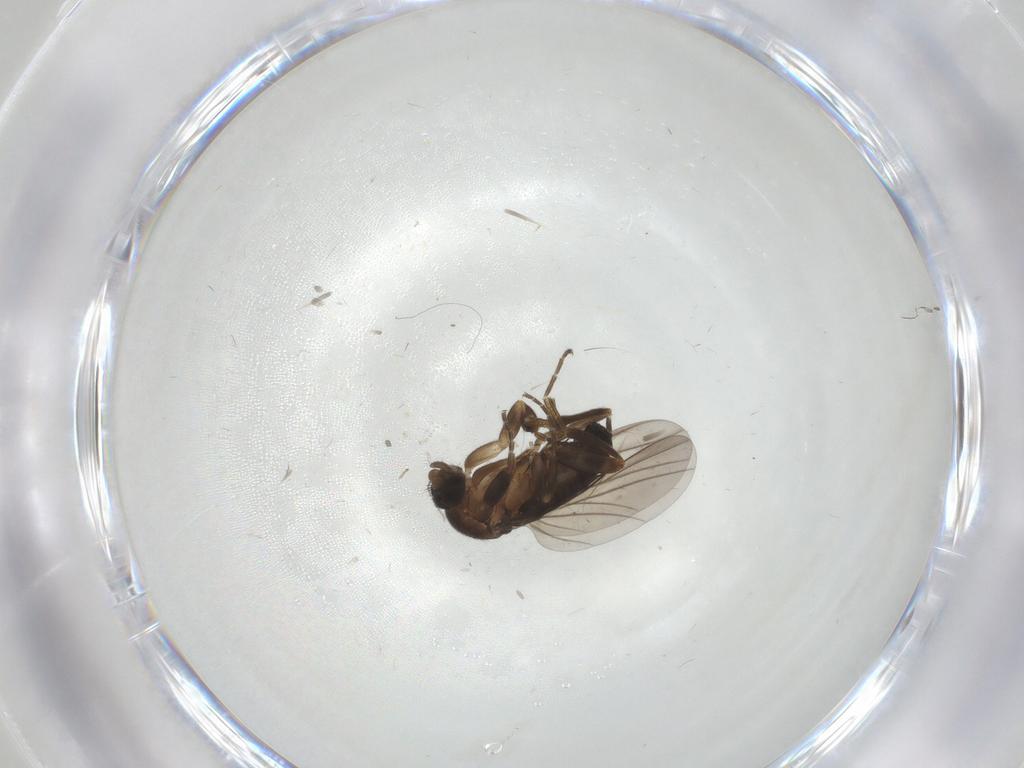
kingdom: Animalia
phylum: Arthropoda
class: Insecta
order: Diptera
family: Phoridae
